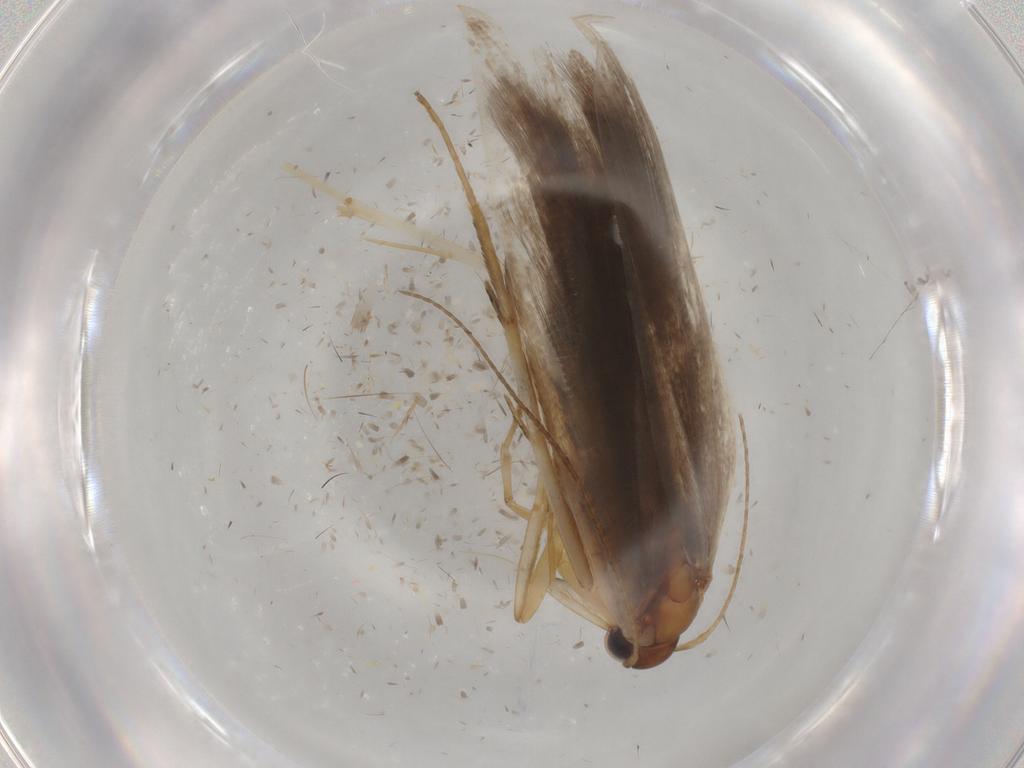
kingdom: Animalia
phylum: Arthropoda
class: Insecta
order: Lepidoptera
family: Gelechiidae
